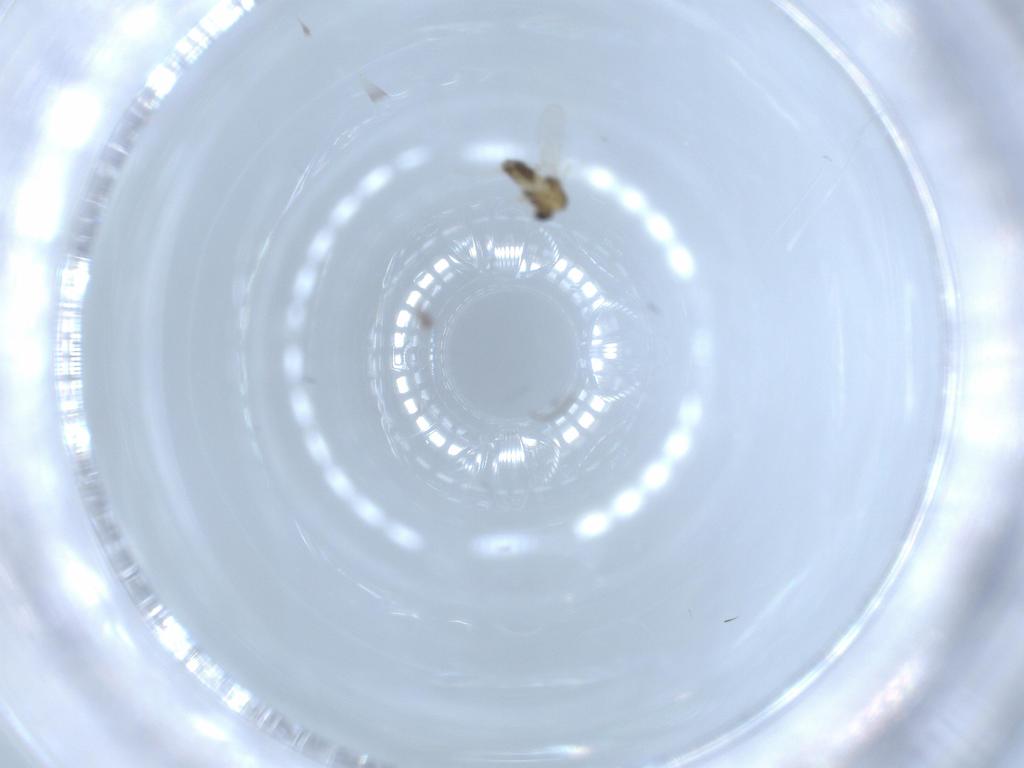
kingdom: Animalia
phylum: Arthropoda
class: Insecta
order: Diptera
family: Chironomidae
